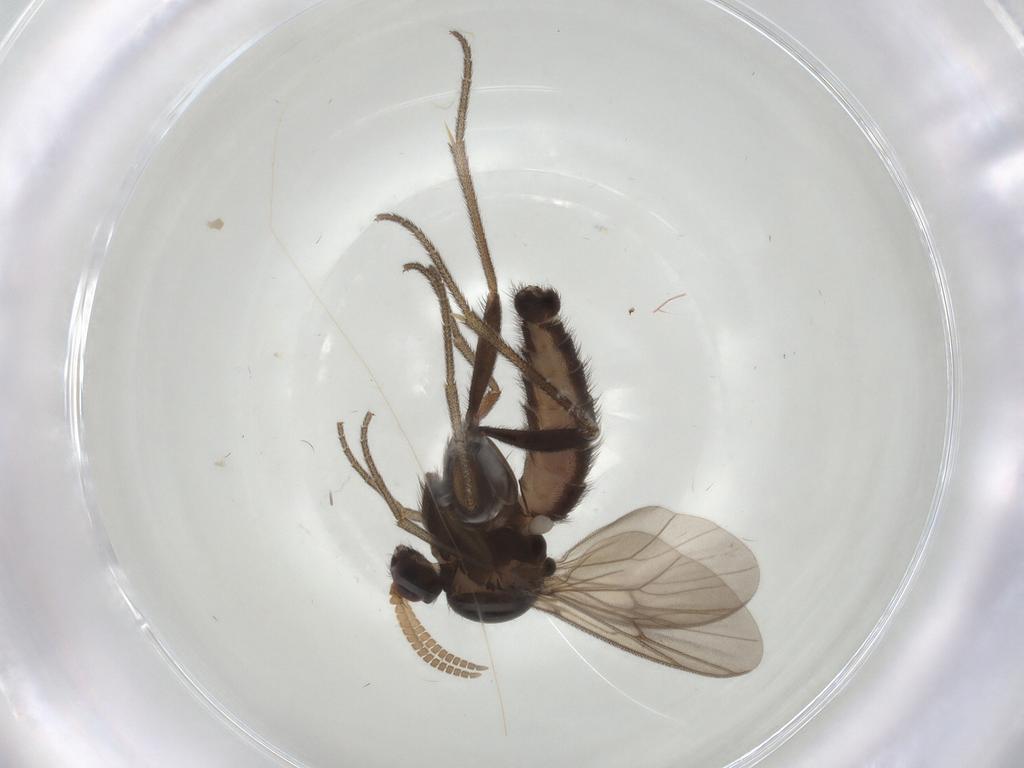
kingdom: Animalia
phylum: Arthropoda
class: Insecta
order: Diptera
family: Mycetophilidae
